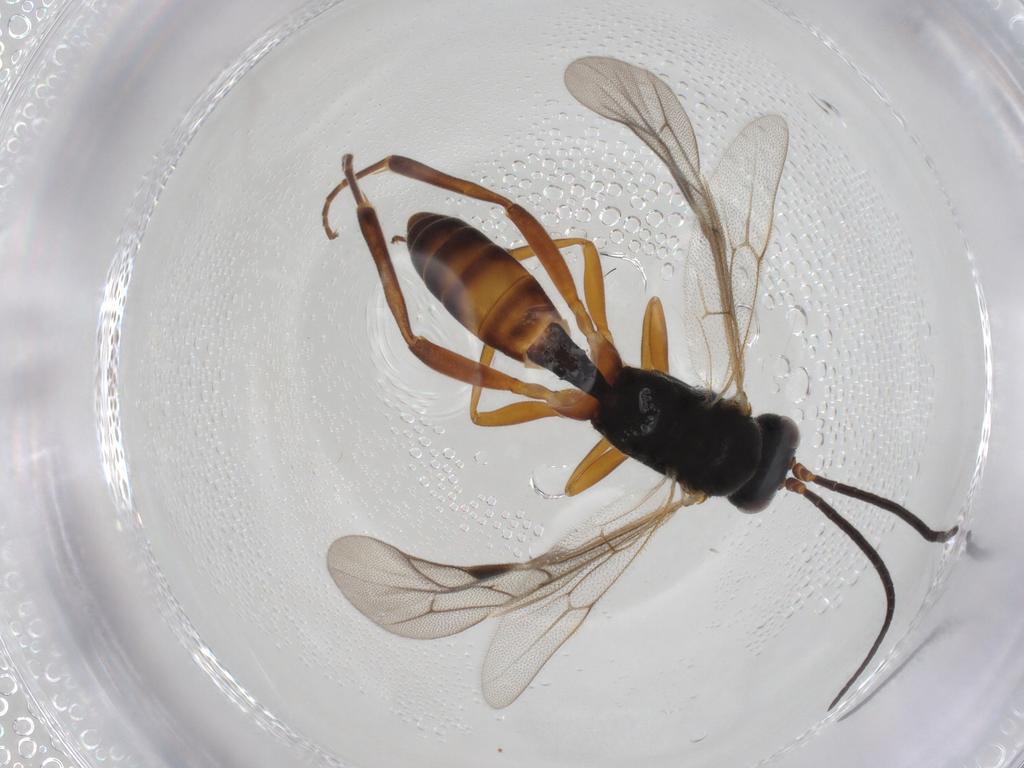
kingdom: Animalia
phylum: Arthropoda
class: Insecta
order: Hymenoptera
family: Ichneumonidae
